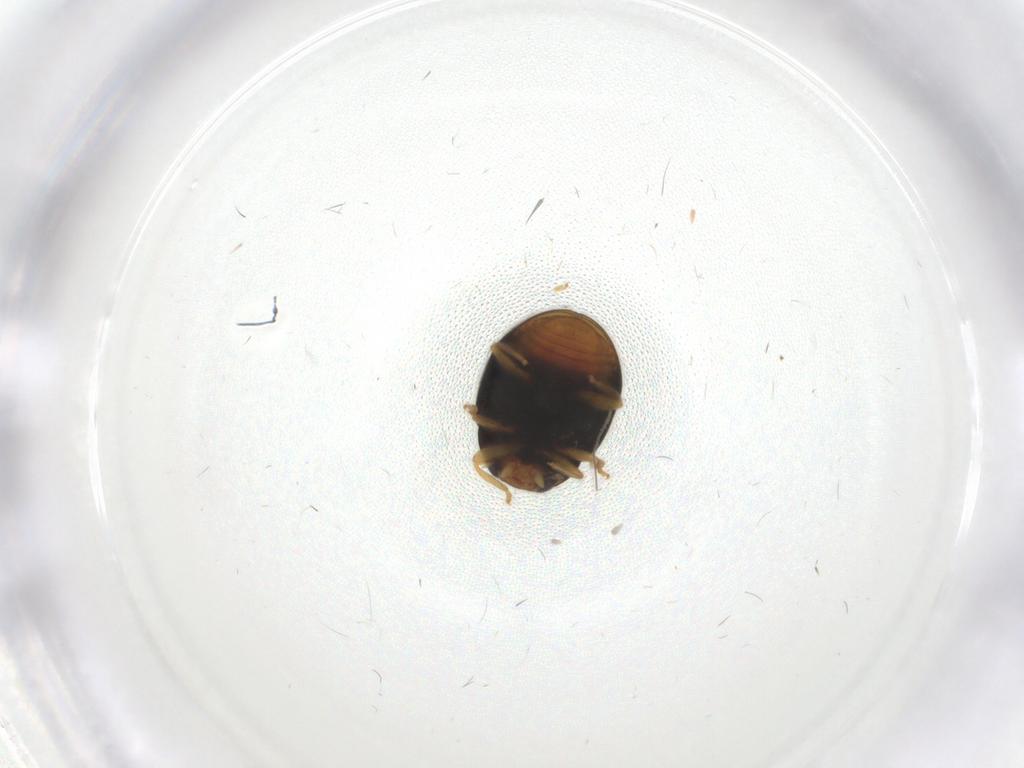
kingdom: Animalia
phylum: Arthropoda
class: Insecta
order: Coleoptera
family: Coccinellidae
